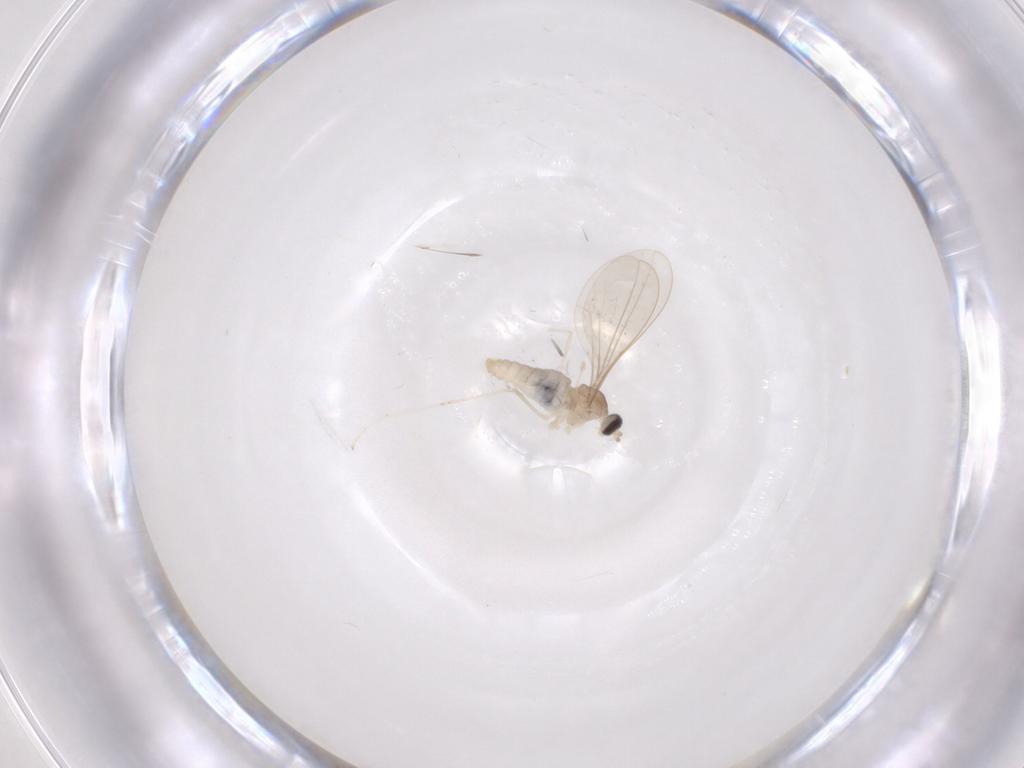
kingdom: Animalia
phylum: Arthropoda
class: Insecta
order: Diptera
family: Cecidomyiidae
